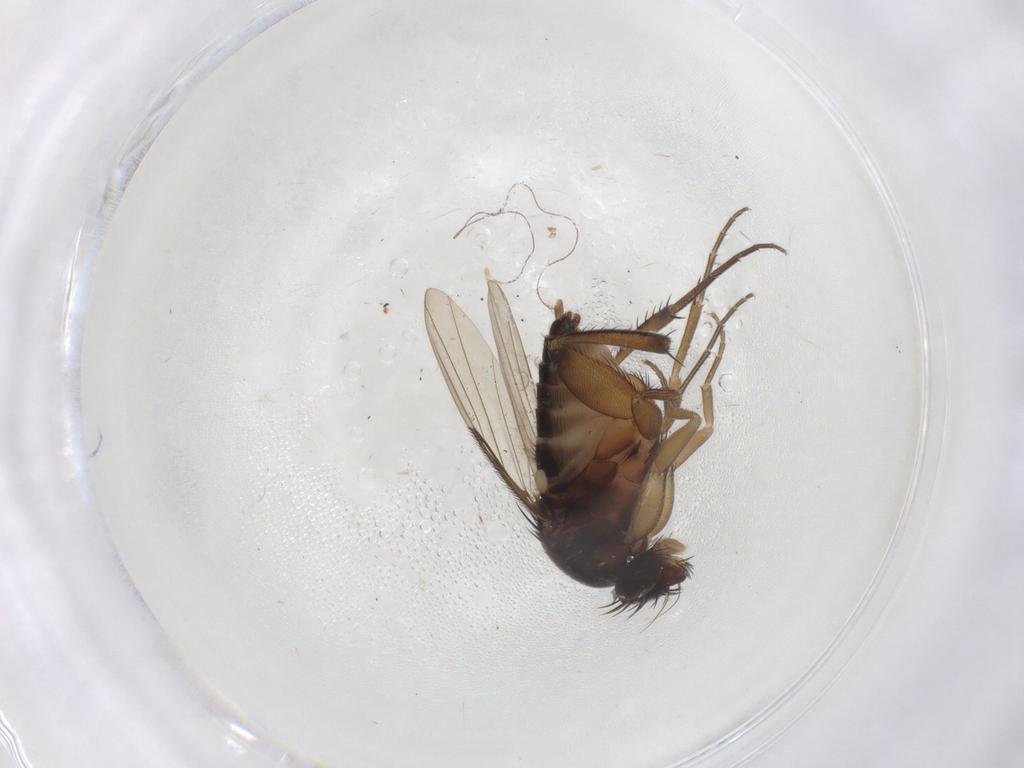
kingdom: Animalia
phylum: Arthropoda
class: Insecta
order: Diptera
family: Phoridae
